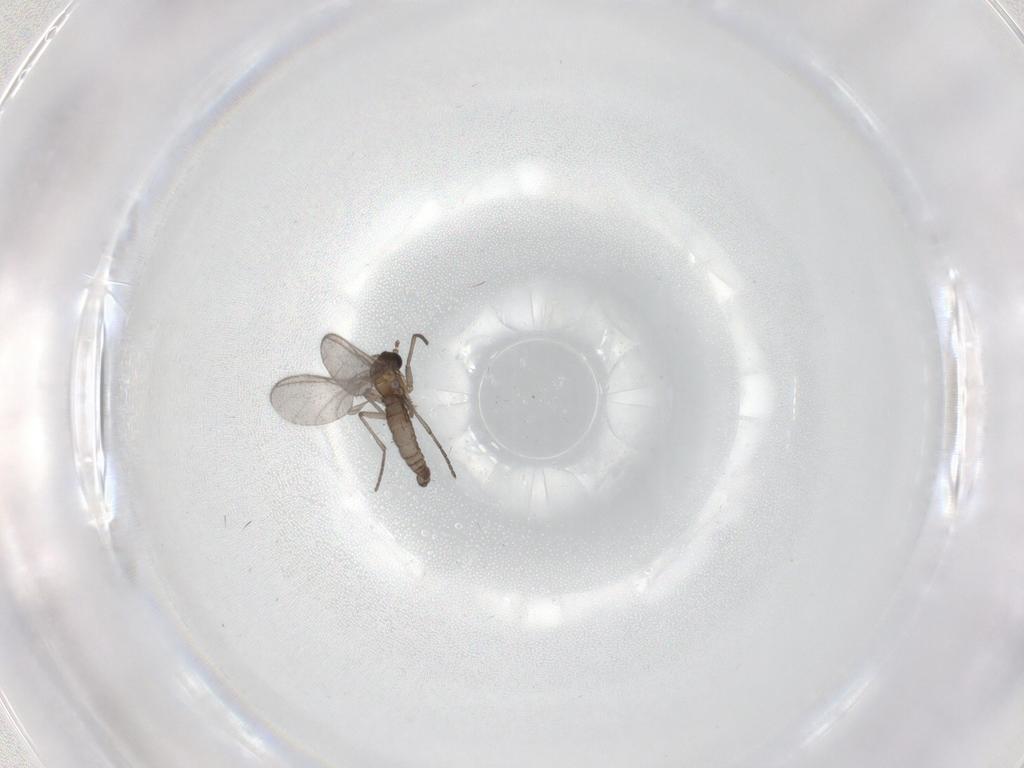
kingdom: Animalia
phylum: Arthropoda
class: Insecta
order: Diptera
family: Sciaridae
